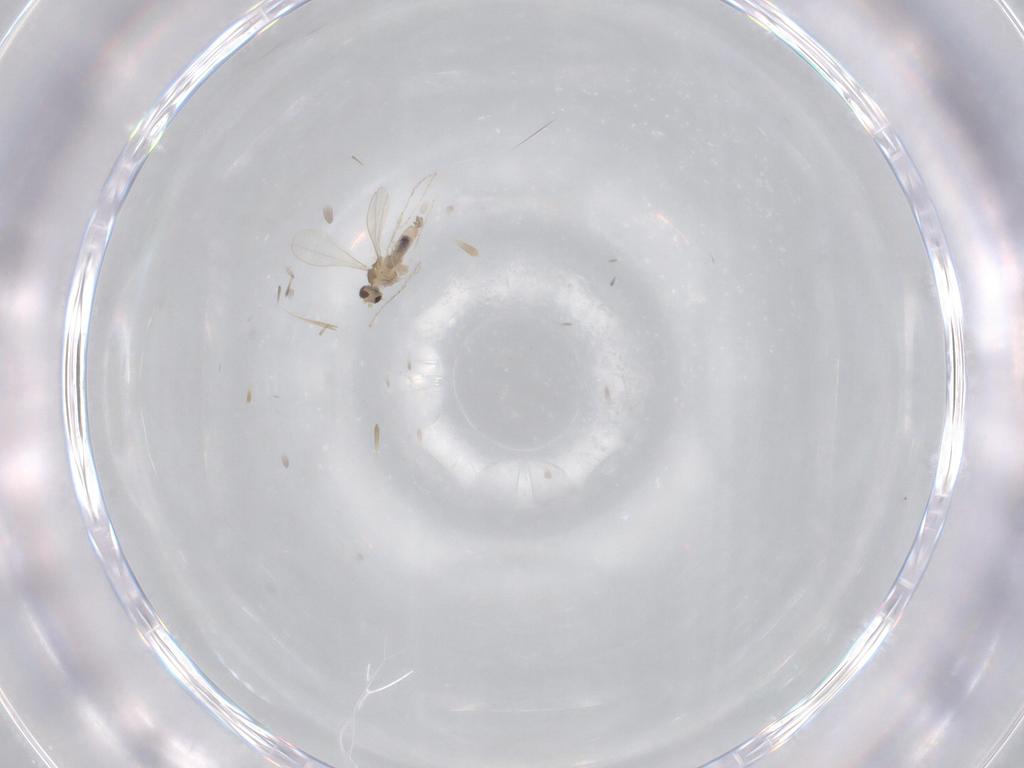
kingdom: Animalia
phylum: Arthropoda
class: Insecta
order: Diptera
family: Cecidomyiidae
